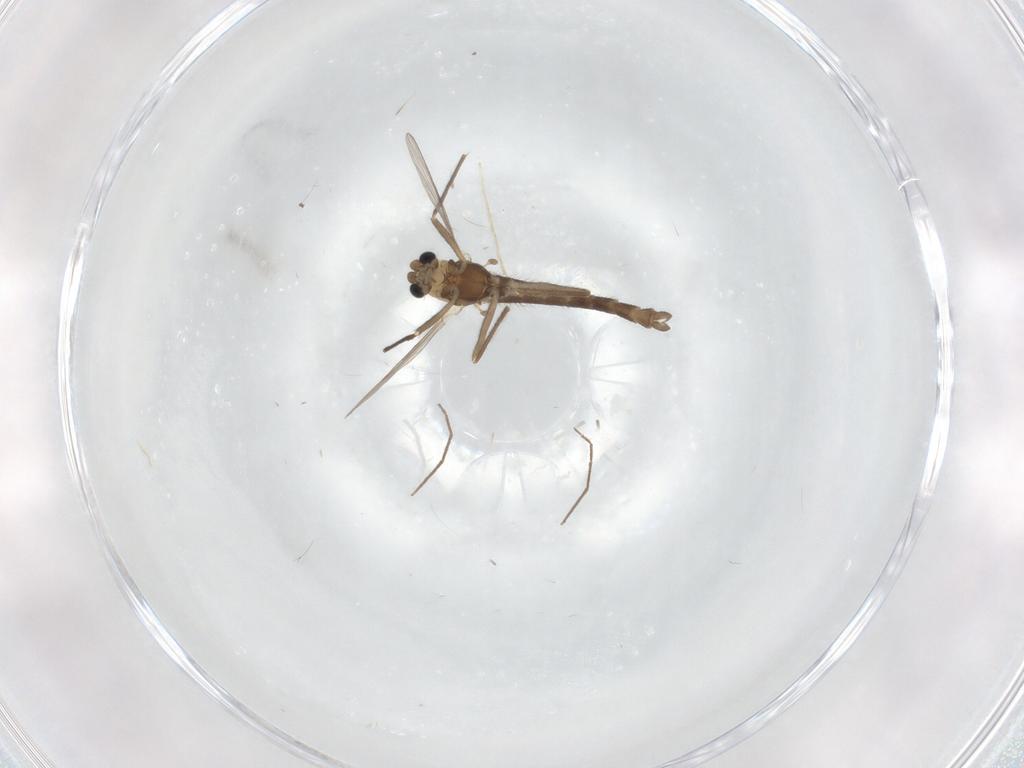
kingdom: Animalia
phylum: Arthropoda
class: Insecta
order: Diptera
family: Chironomidae
